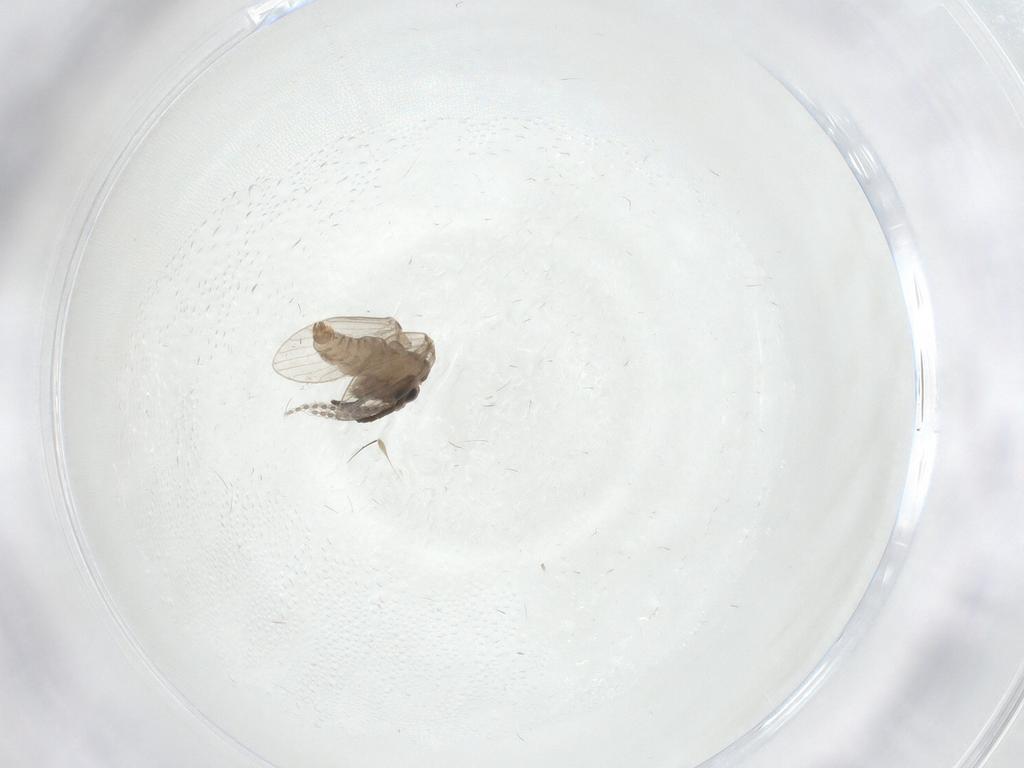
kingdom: Animalia
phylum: Arthropoda
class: Insecta
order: Diptera
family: Psychodidae
